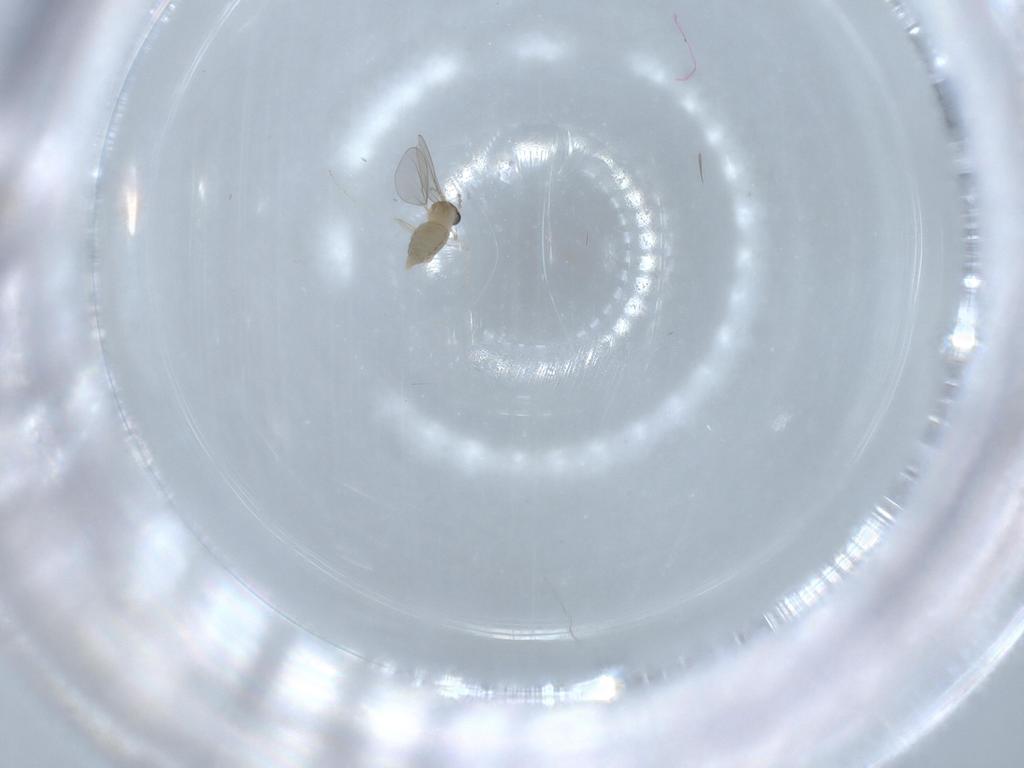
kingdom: Animalia
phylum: Arthropoda
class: Insecta
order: Diptera
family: Cecidomyiidae
